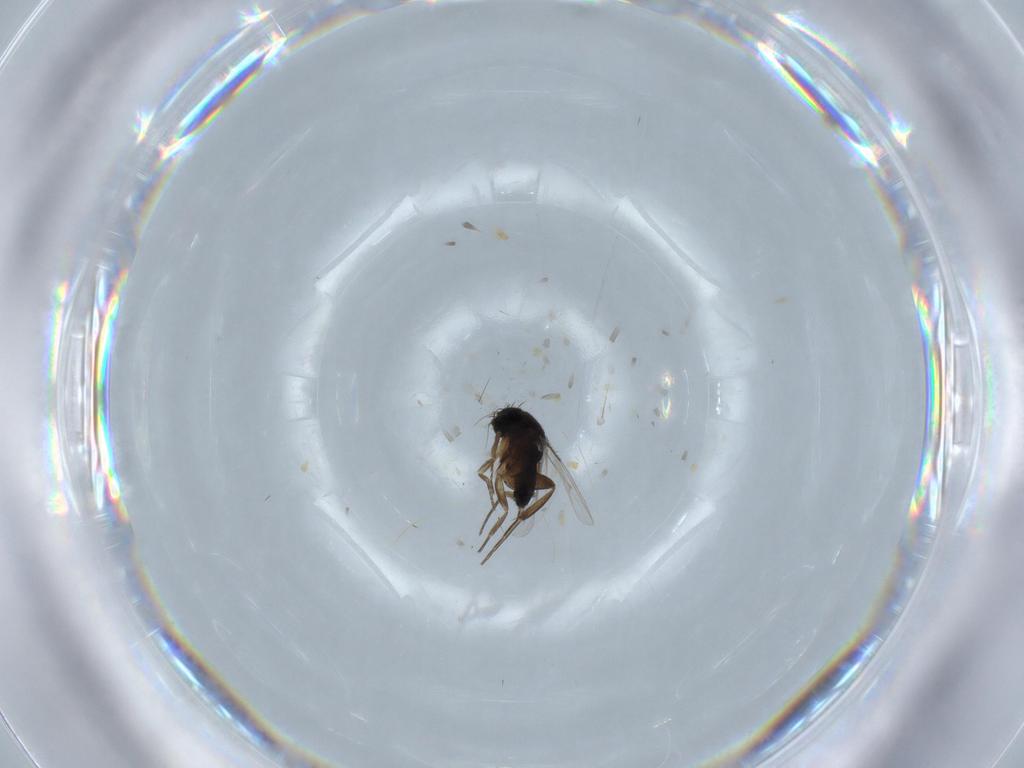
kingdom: Animalia
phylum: Arthropoda
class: Insecta
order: Diptera
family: Phoridae
